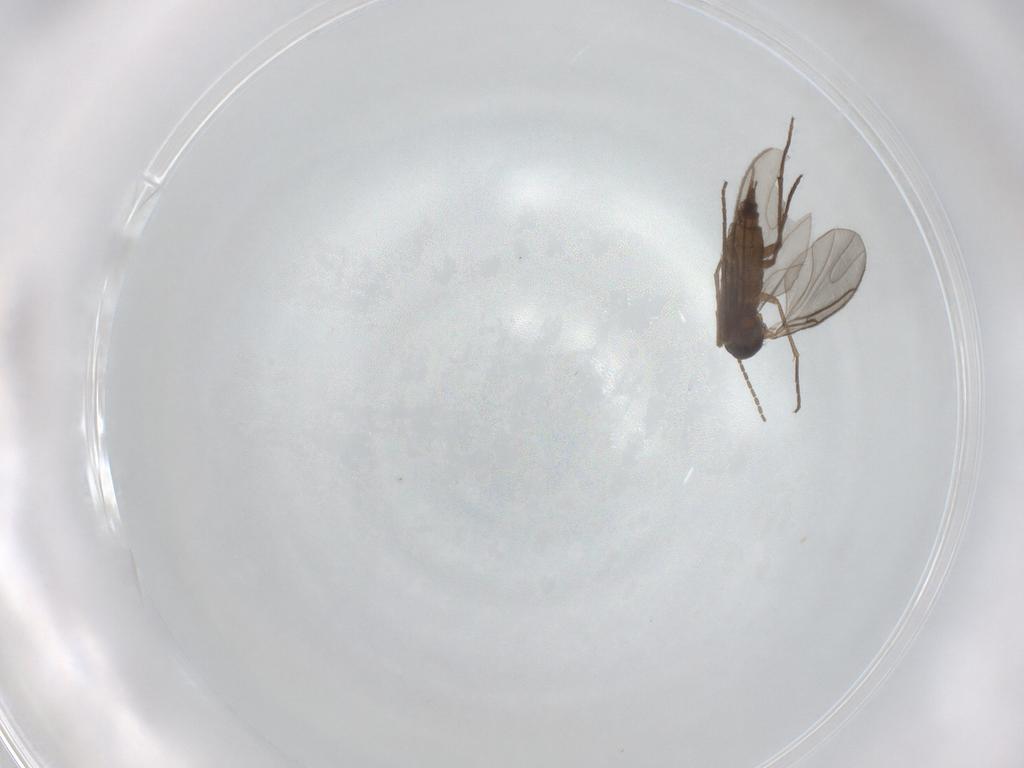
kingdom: Animalia
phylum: Arthropoda
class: Insecta
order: Diptera
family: Sciaridae
